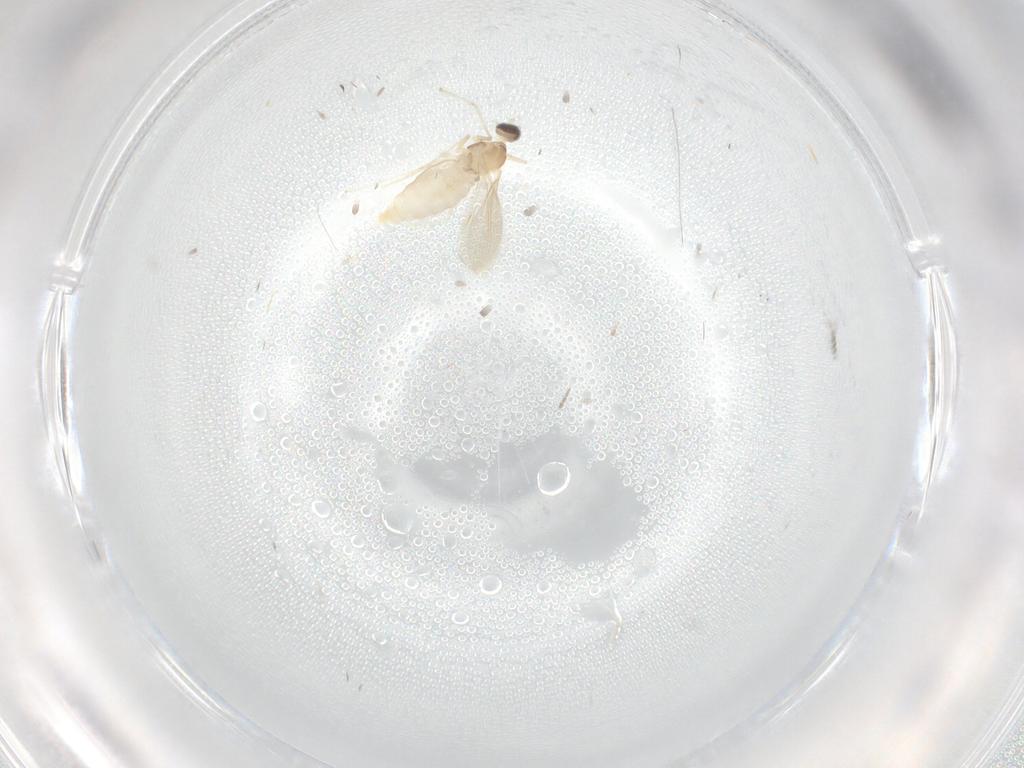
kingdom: Animalia
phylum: Arthropoda
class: Insecta
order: Diptera
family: Cecidomyiidae
